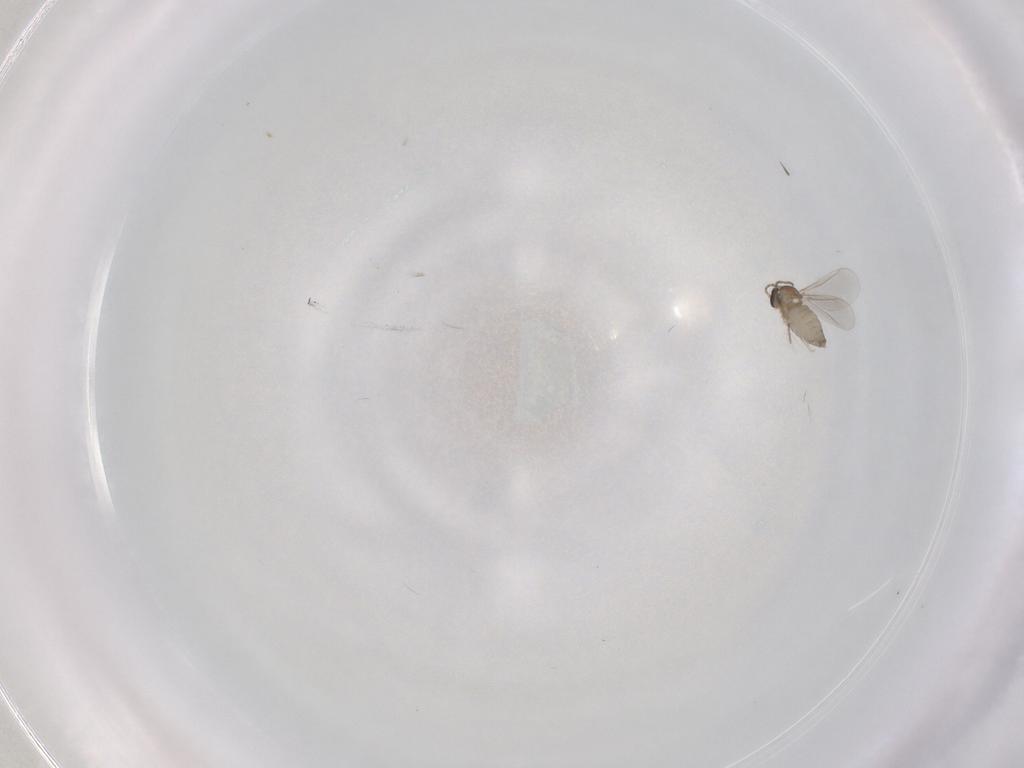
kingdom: Animalia
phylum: Arthropoda
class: Insecta
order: Diptera
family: Cecidomyiidae
